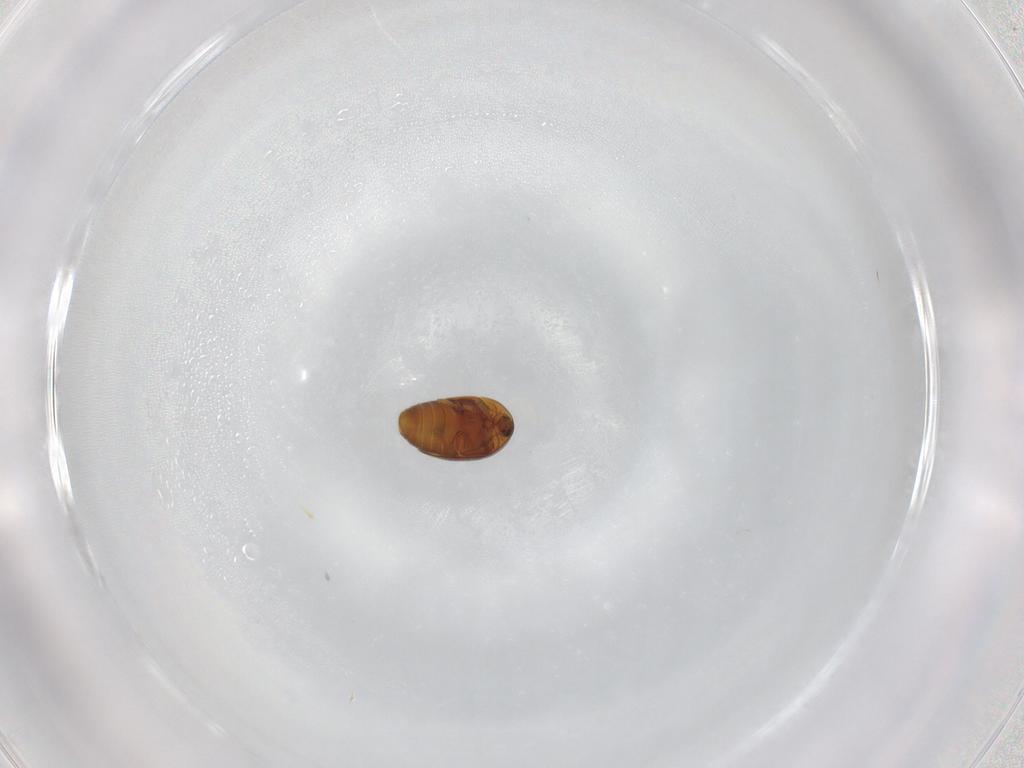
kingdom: Animalia
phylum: Arthropoda
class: Insecta
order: Coleoptera
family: Corylophidae
